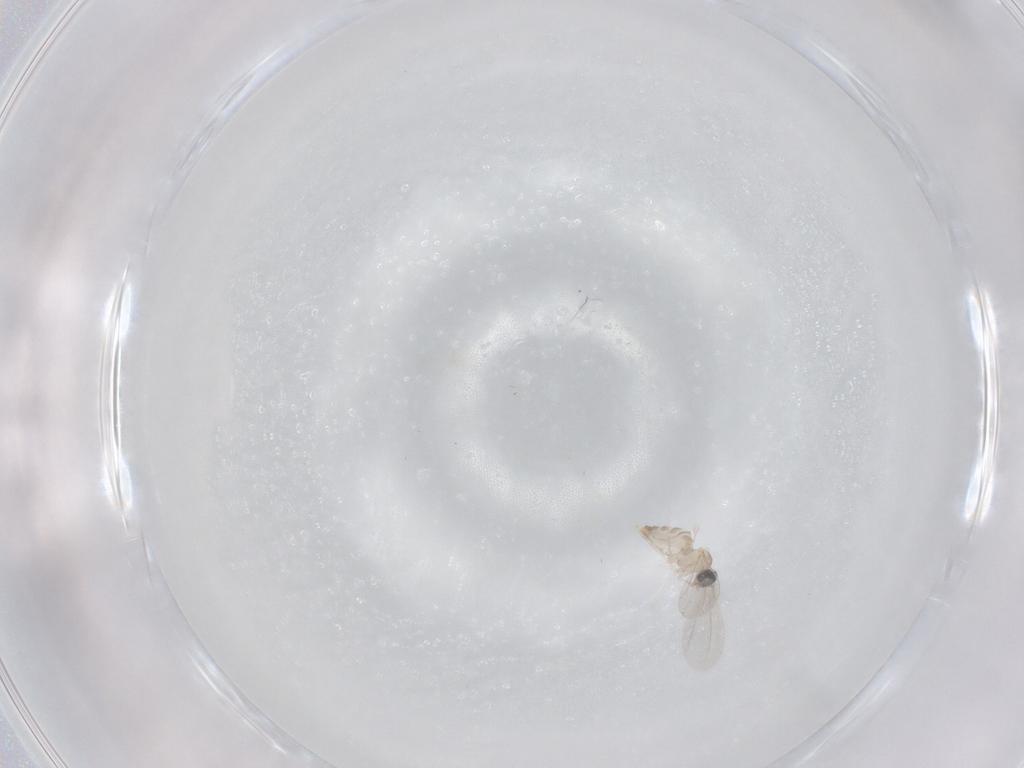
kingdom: Animalia
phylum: Arthropoda
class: Insecta
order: Diptera
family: Cecidomyiidae
